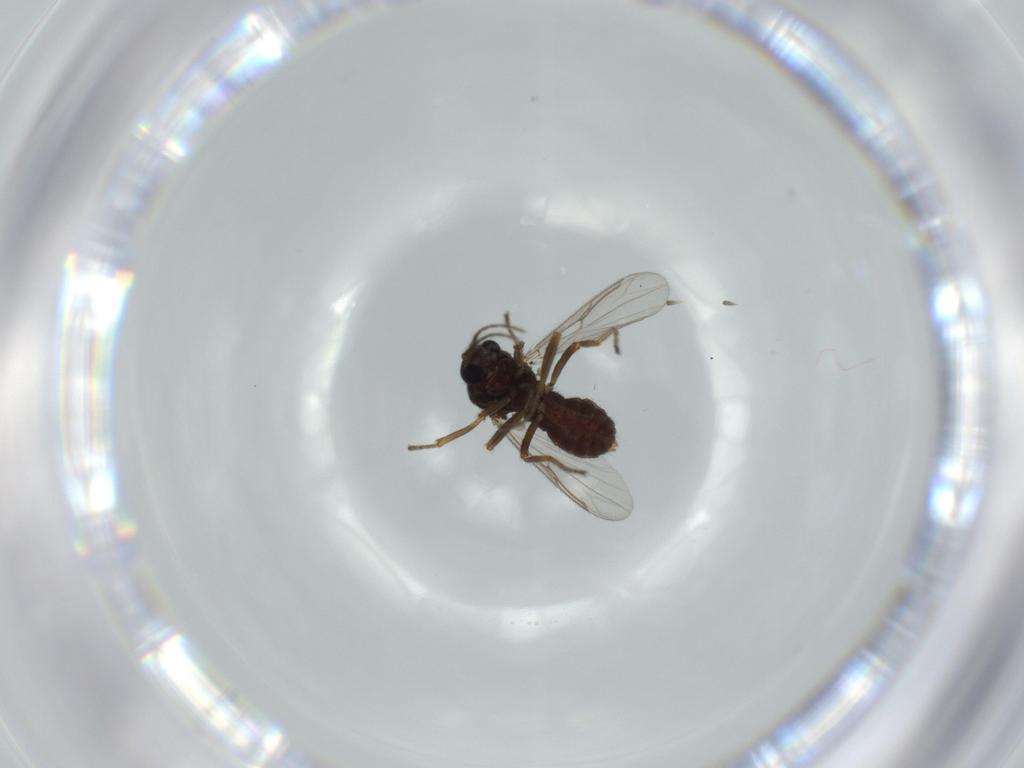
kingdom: Animalia
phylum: Arthropoda
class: Insecta
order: Diptera
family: Ceratopogonidae
